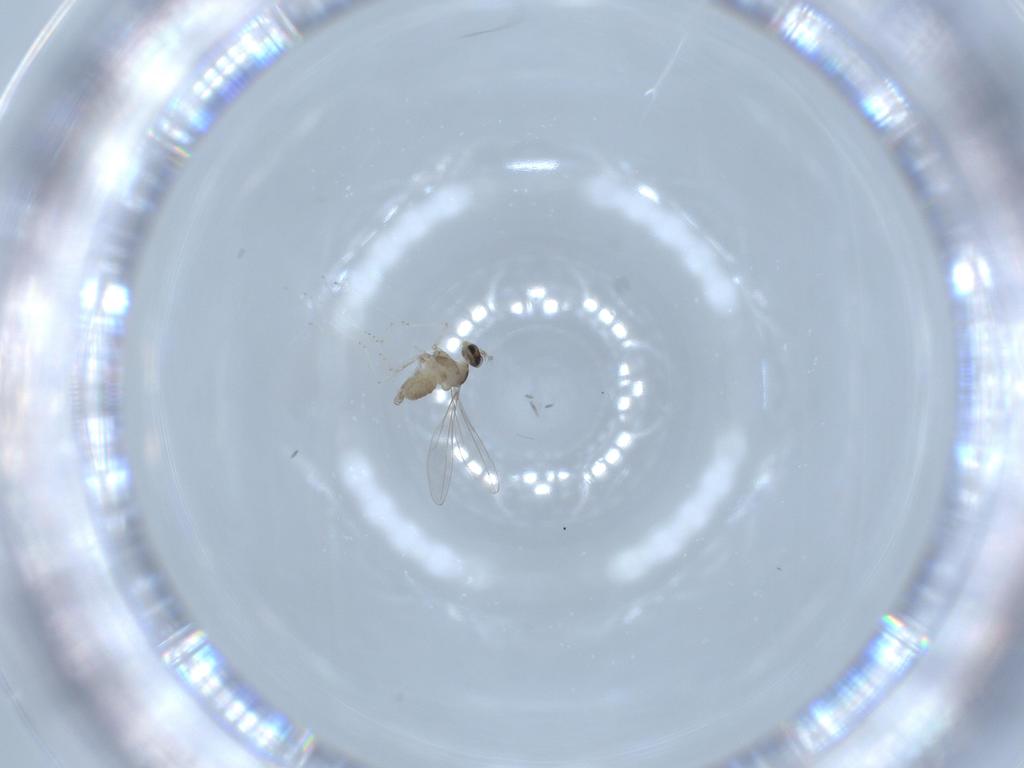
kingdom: Animalia
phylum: Arthropoda
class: Insecta
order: Diptera
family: Cecidomyiidae
